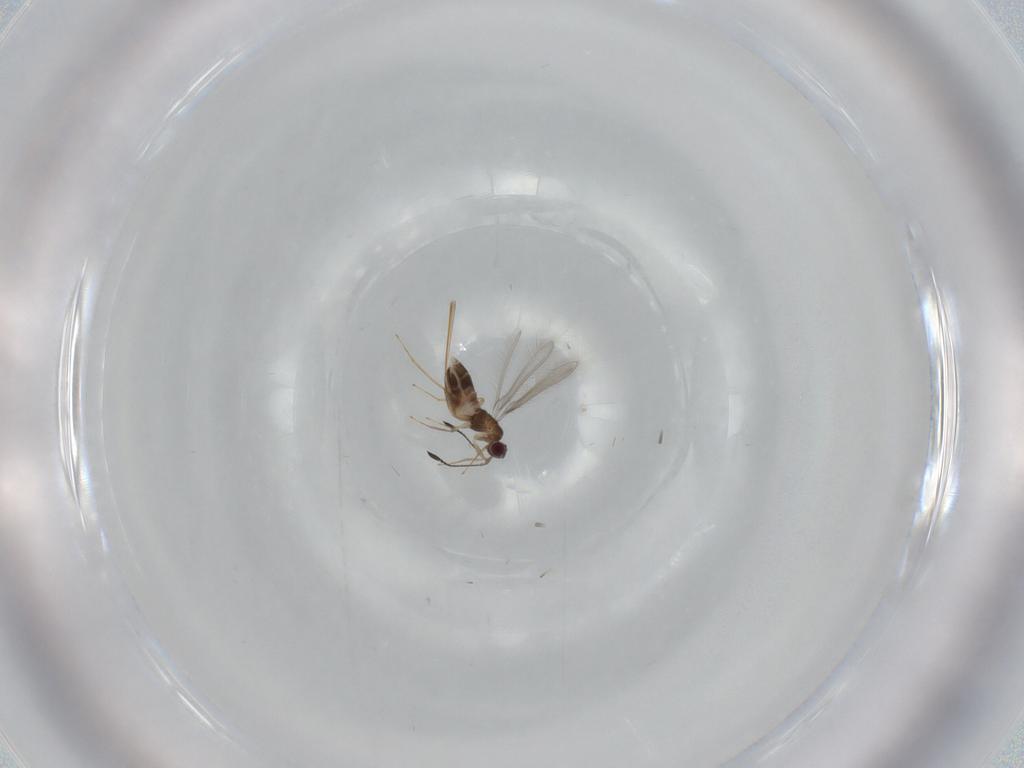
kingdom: Animalia
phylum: Arthropoda
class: Insecta
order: Hymenoptera
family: Mymaridae
